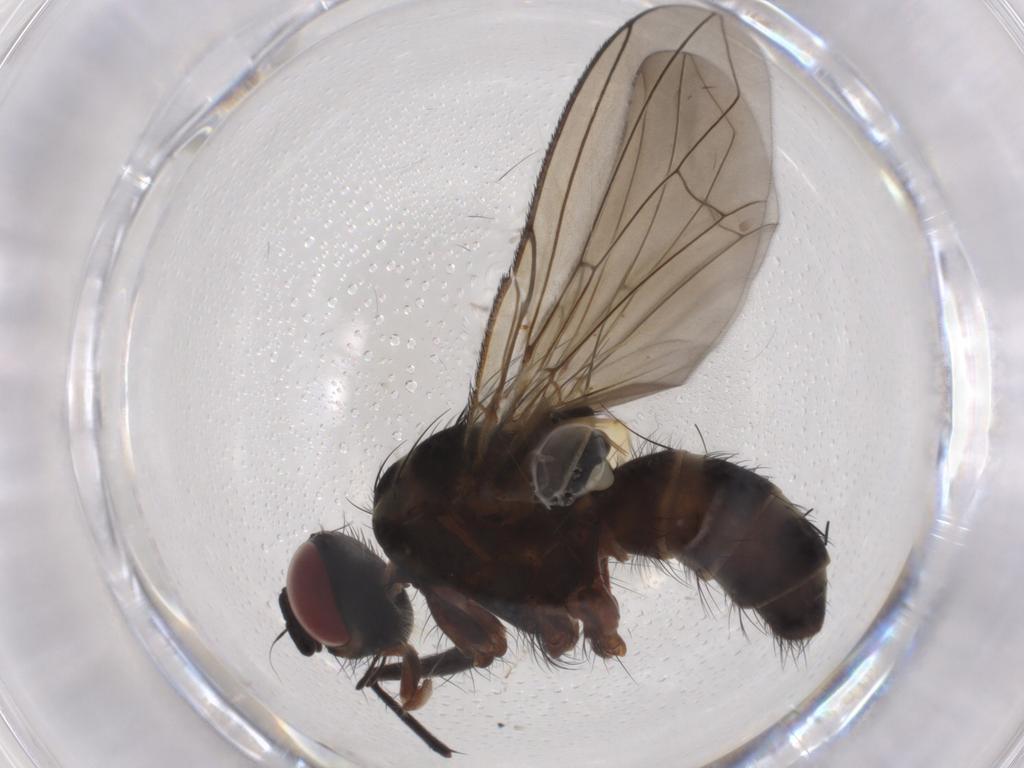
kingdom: Animalia
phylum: Arthropoda
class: Insecta
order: Diptera
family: Muscidae
